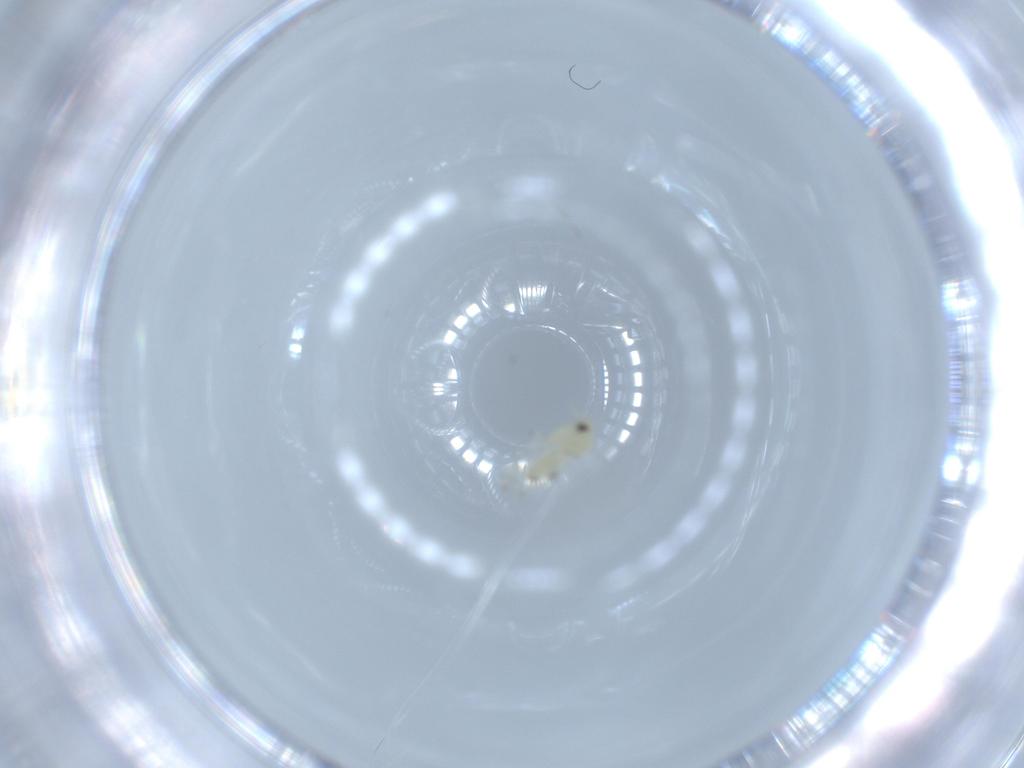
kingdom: Animalia
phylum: Arthropoda
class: Insecta
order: Hemiptera
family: Aleyrodidae
